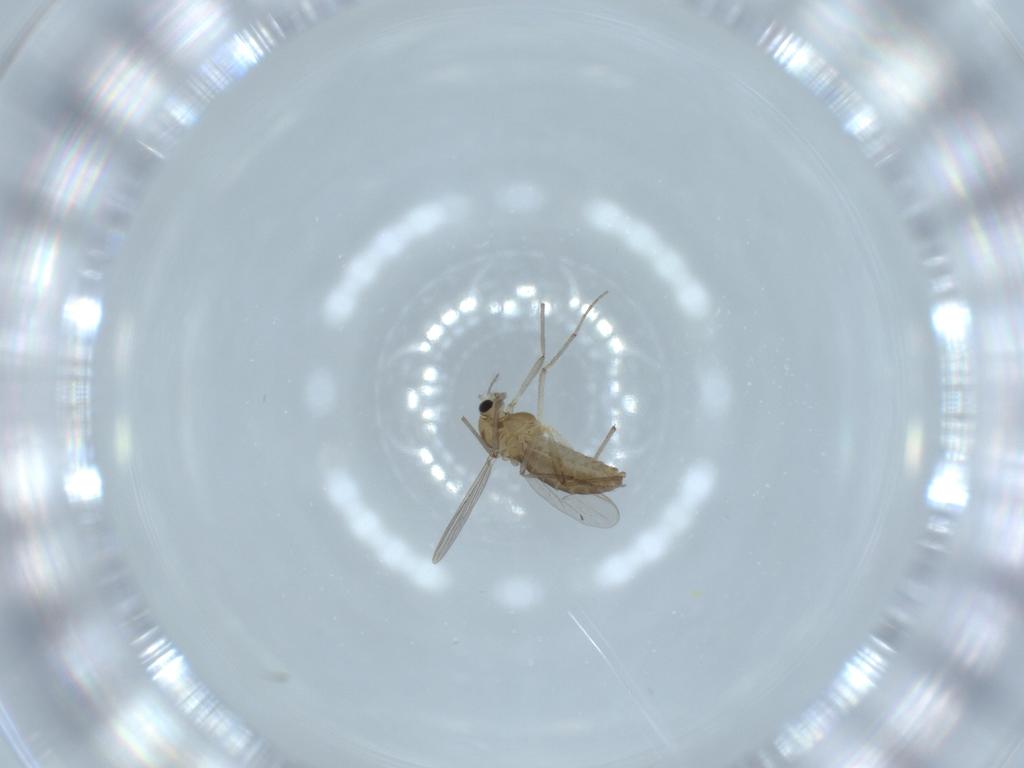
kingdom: Animalia
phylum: Arthropoda
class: Insecta
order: Diptera
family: Chironomidae
